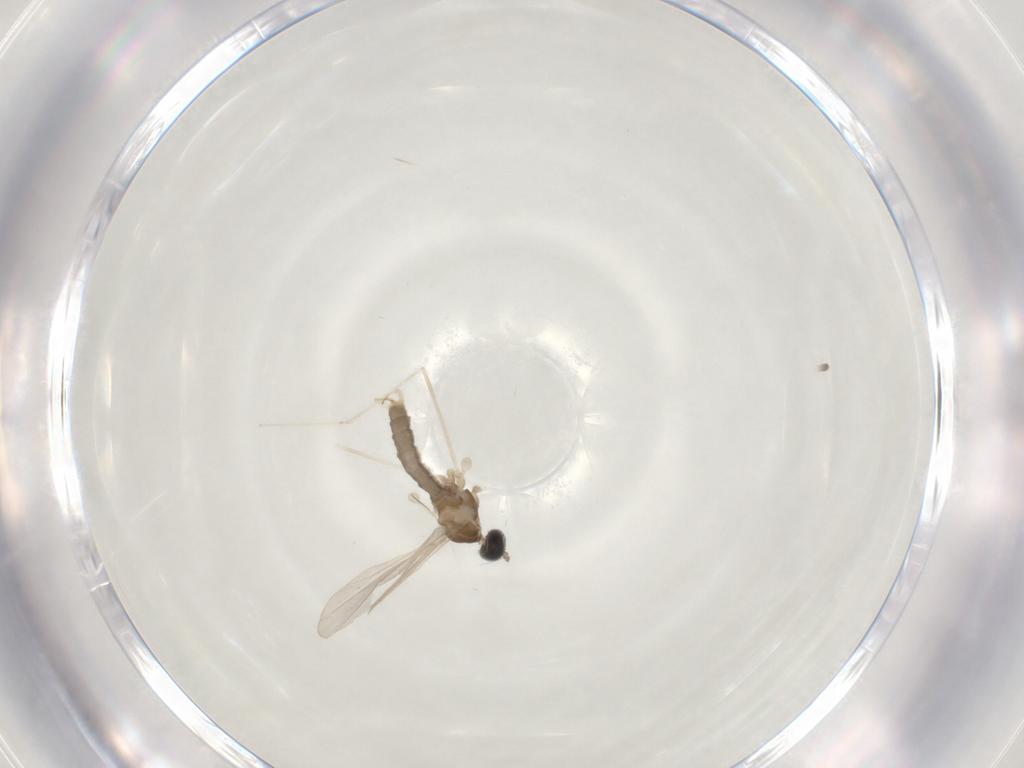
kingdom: Animalia
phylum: Arthropoda
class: Insecta
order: Diptera
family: Cecidomyiidae
